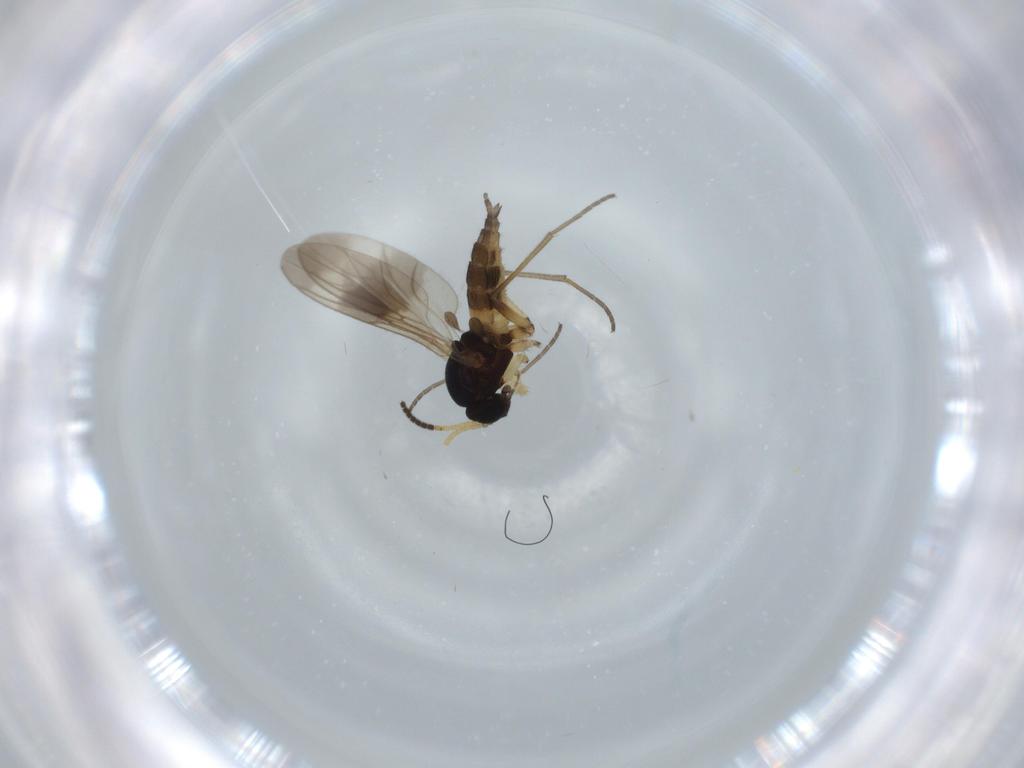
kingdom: Animalia
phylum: Arthropoda
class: Insecta
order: Diptera
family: Sciaridae
